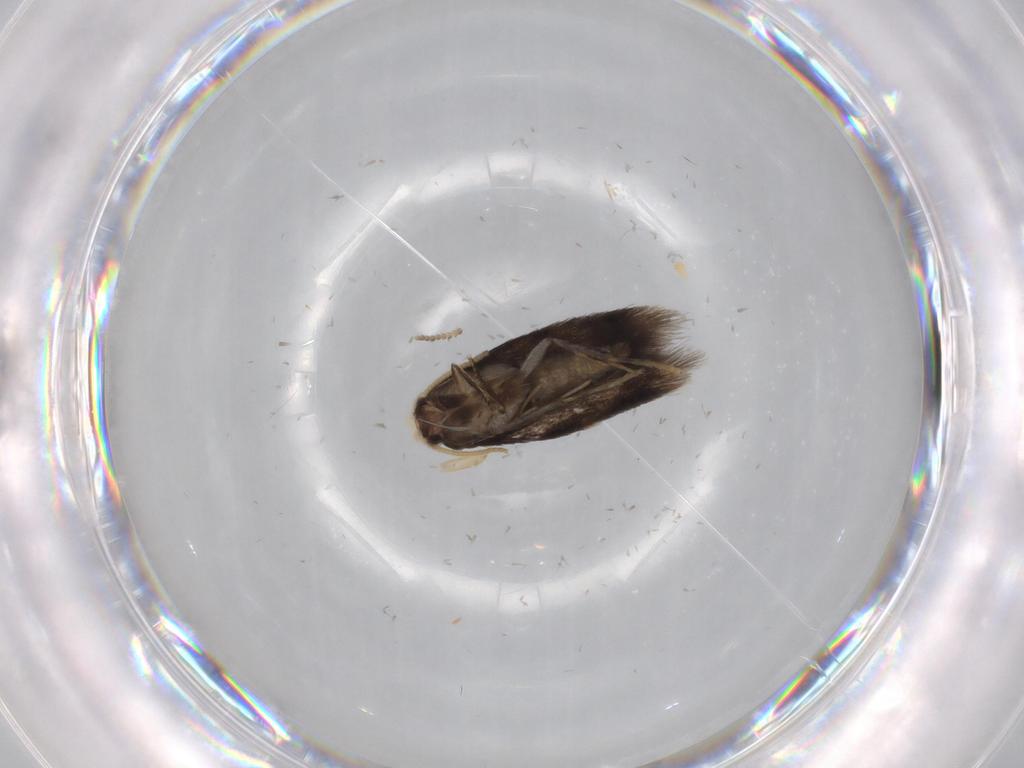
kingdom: Animalia
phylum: Arthropoda
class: Insecta
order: Lepidoptera
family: Nepticulidae
